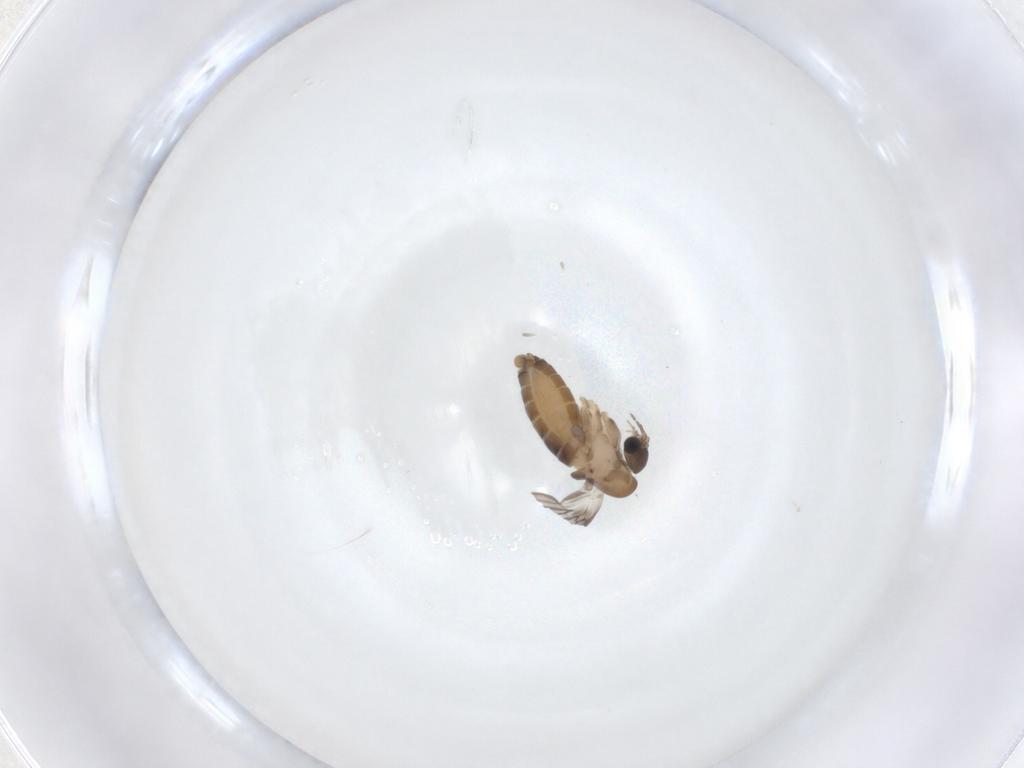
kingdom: Animalia
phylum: Arthropoda
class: Insecta
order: Diptera
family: Psychodidae
